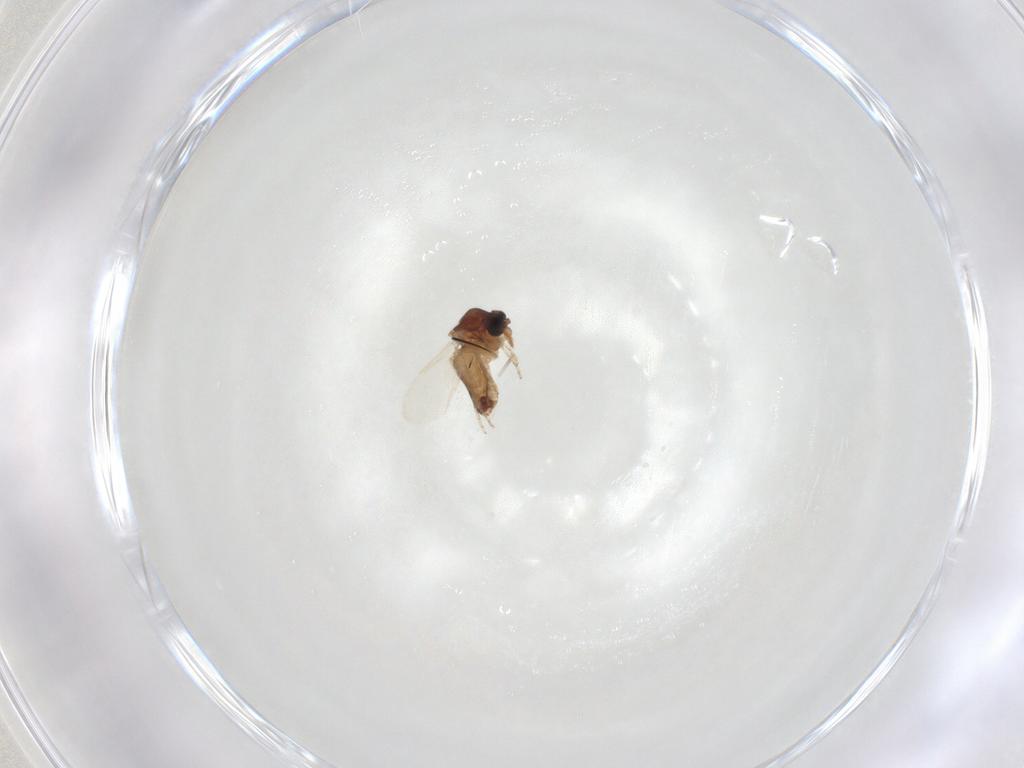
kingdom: Animalia
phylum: Arthropoda
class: Insecta
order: Diptera
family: Ceratopogonidae
